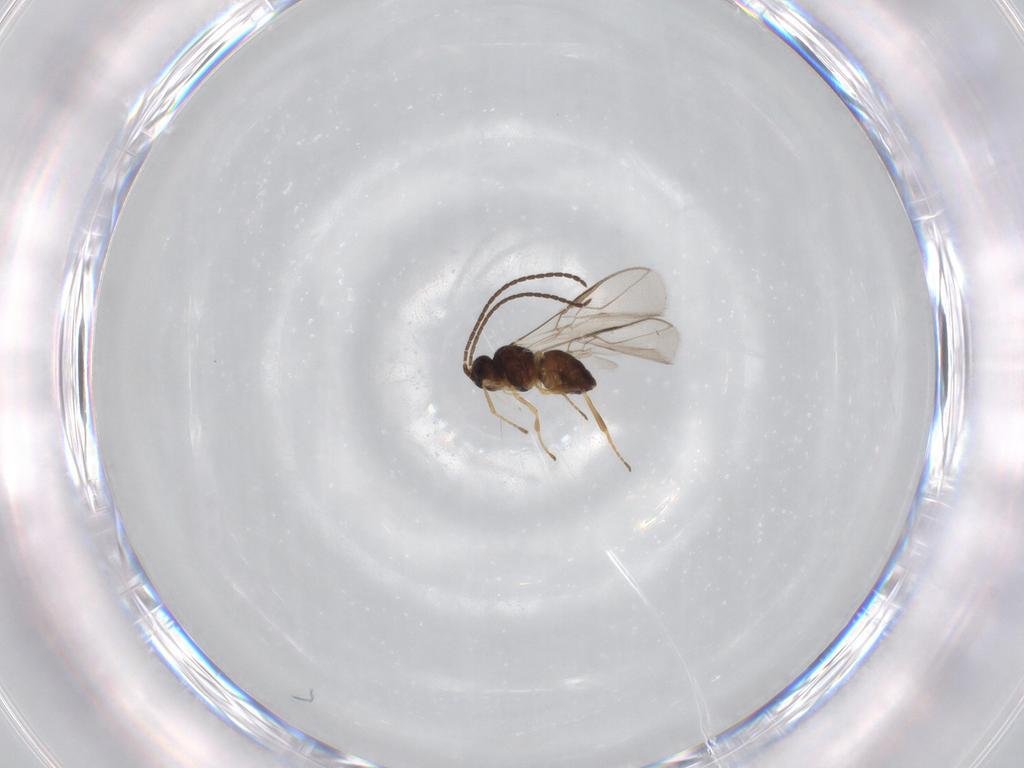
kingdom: Animalia
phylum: Arthropoda
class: Insecta
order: Hymenoptera
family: Braconidae
